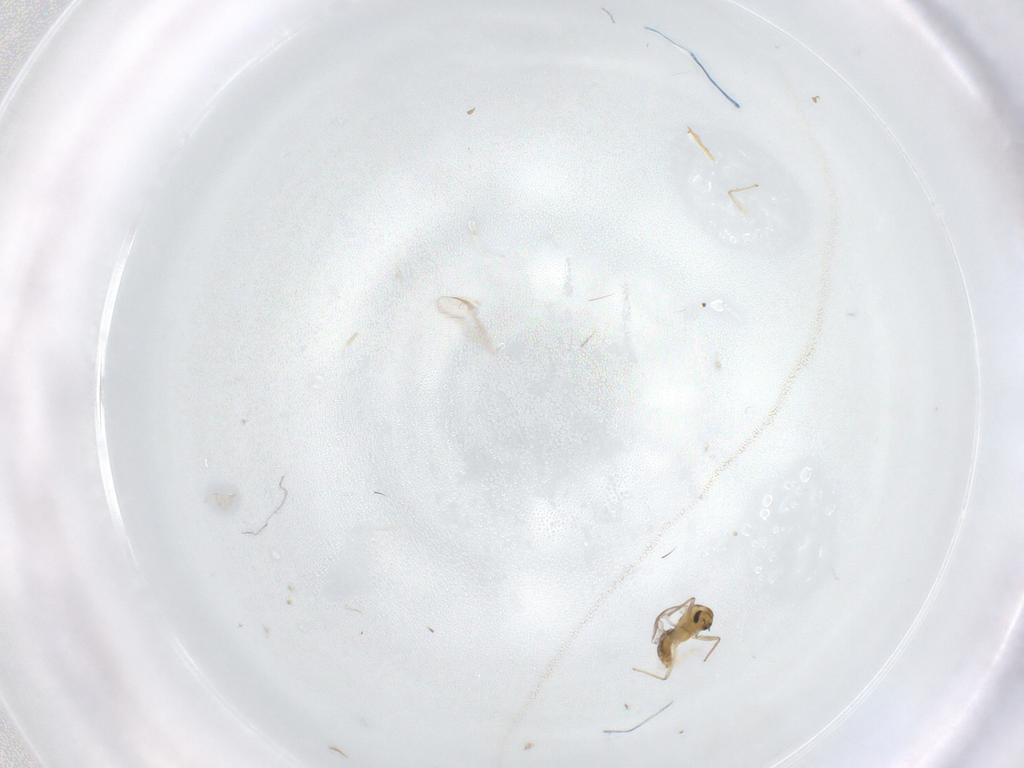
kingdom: Animalia
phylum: Arthropoda
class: Insecta
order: Diptera
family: Chironomidae
